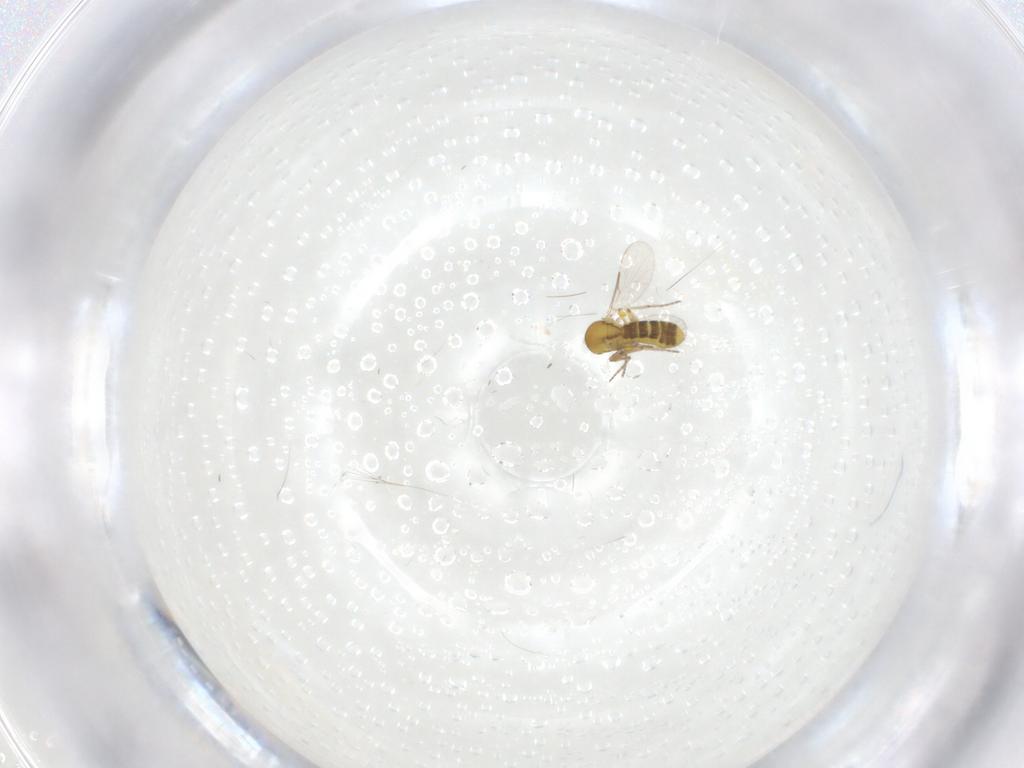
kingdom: Animalia
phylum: Arthropoda
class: Insecta
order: Diptera
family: Ceratopogonidae
